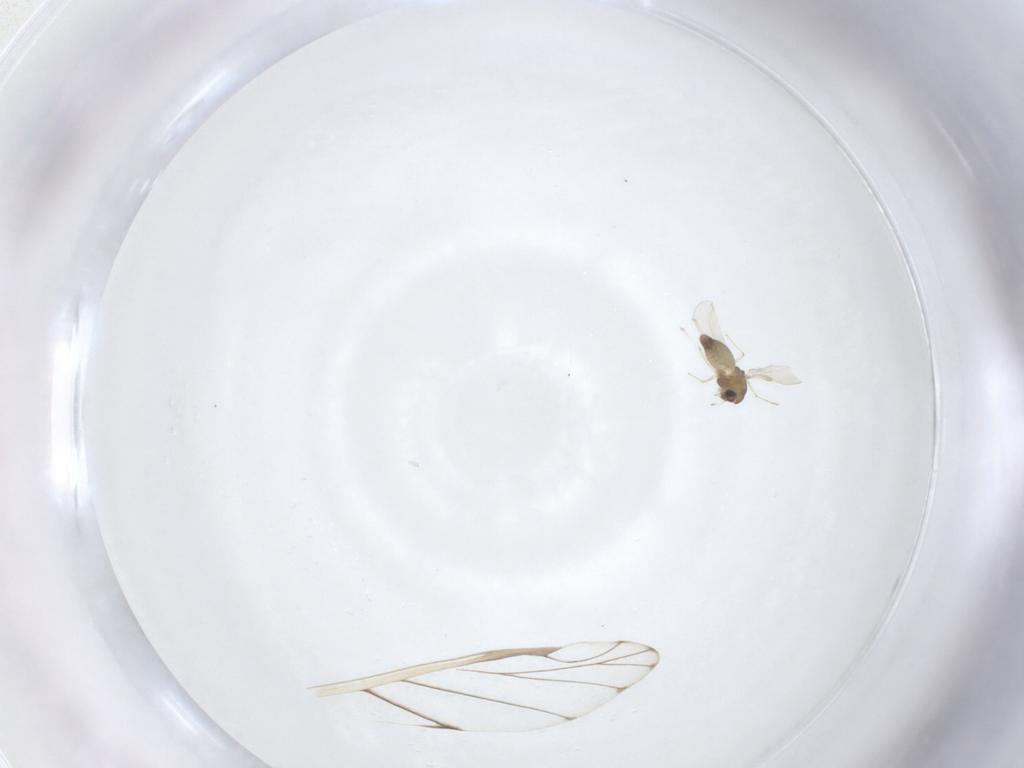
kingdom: Animalia
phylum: Arthropoda
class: Insecta
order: Diptera
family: Chironomidae
